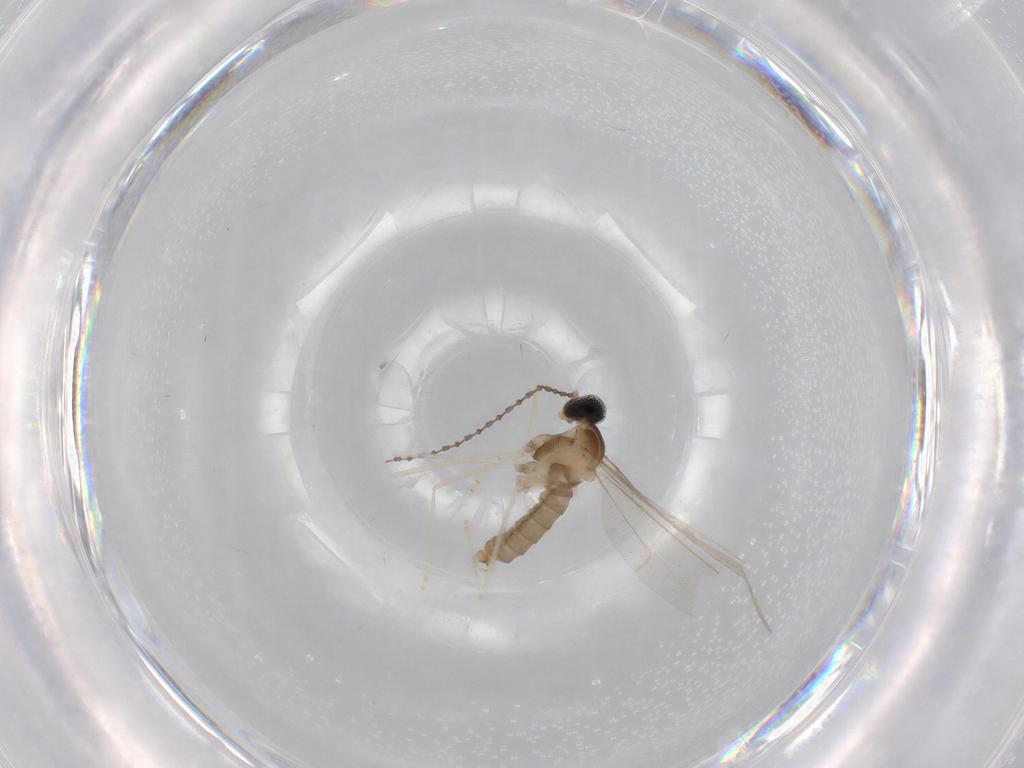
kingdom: Animalia
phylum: Arthropoda
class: Insecta
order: Diptera
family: Cecidomyiidae
